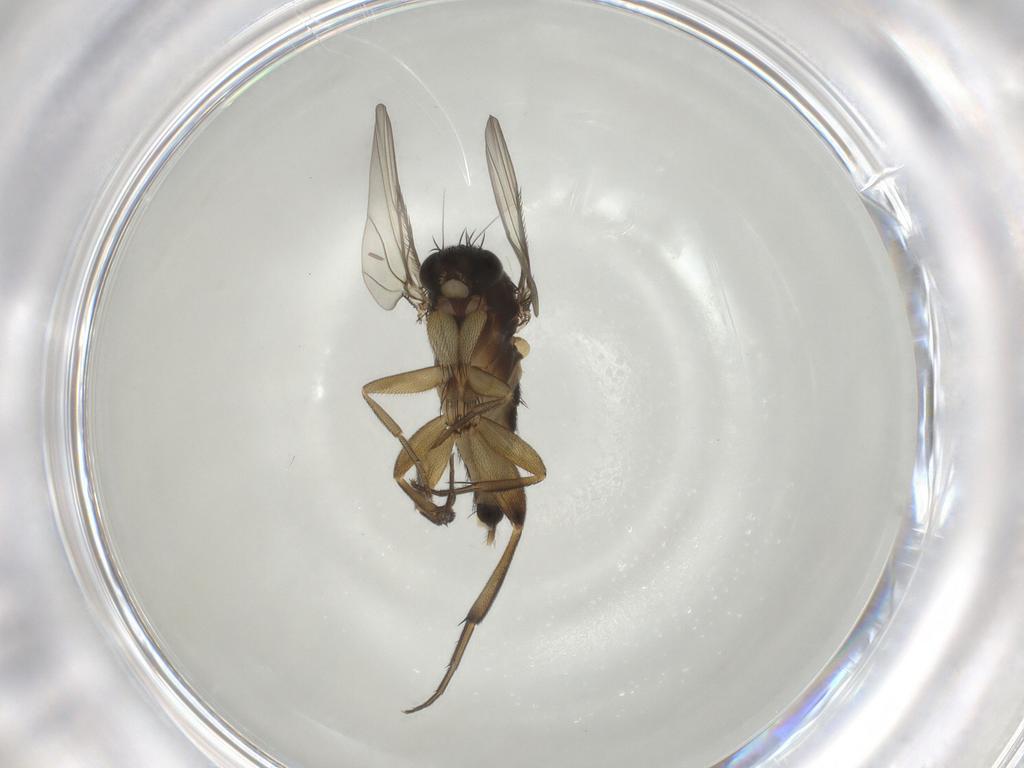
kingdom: Animalia
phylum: Arthropoda
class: Insecta
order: Diptera
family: Phoridae
